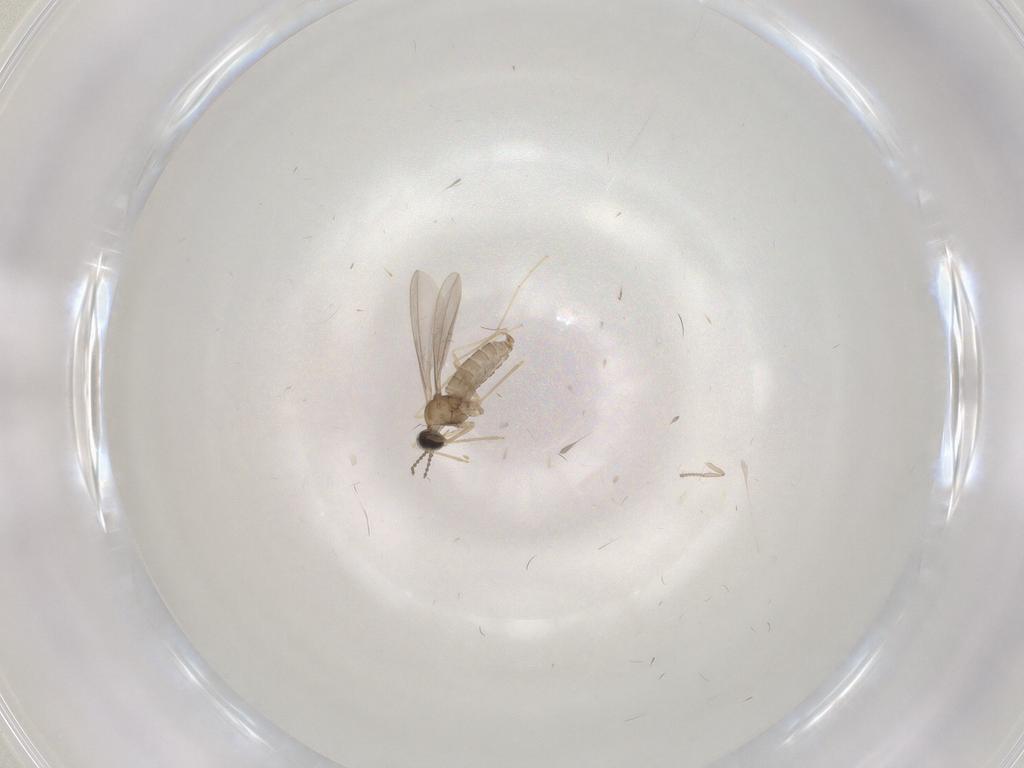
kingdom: Animalia
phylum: Arthropoda
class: Insecta
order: Diptera
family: Cecidomyiidae
